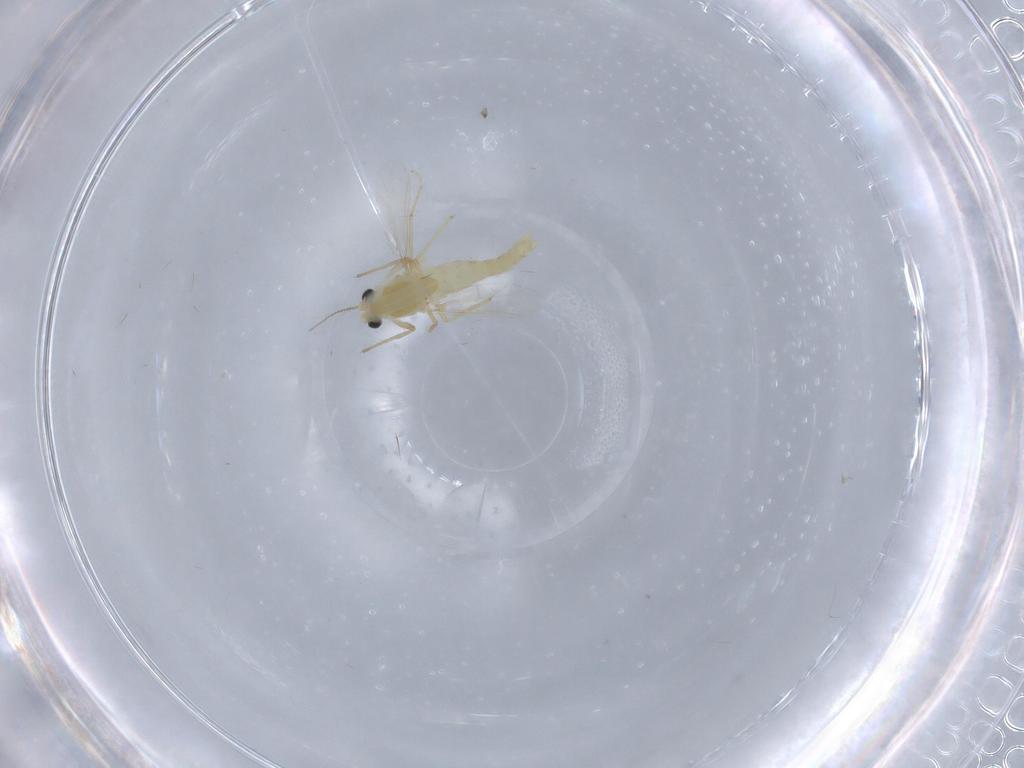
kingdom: Animalia
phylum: Arthropoda
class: Insecta
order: Diptera
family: Chironomidae
